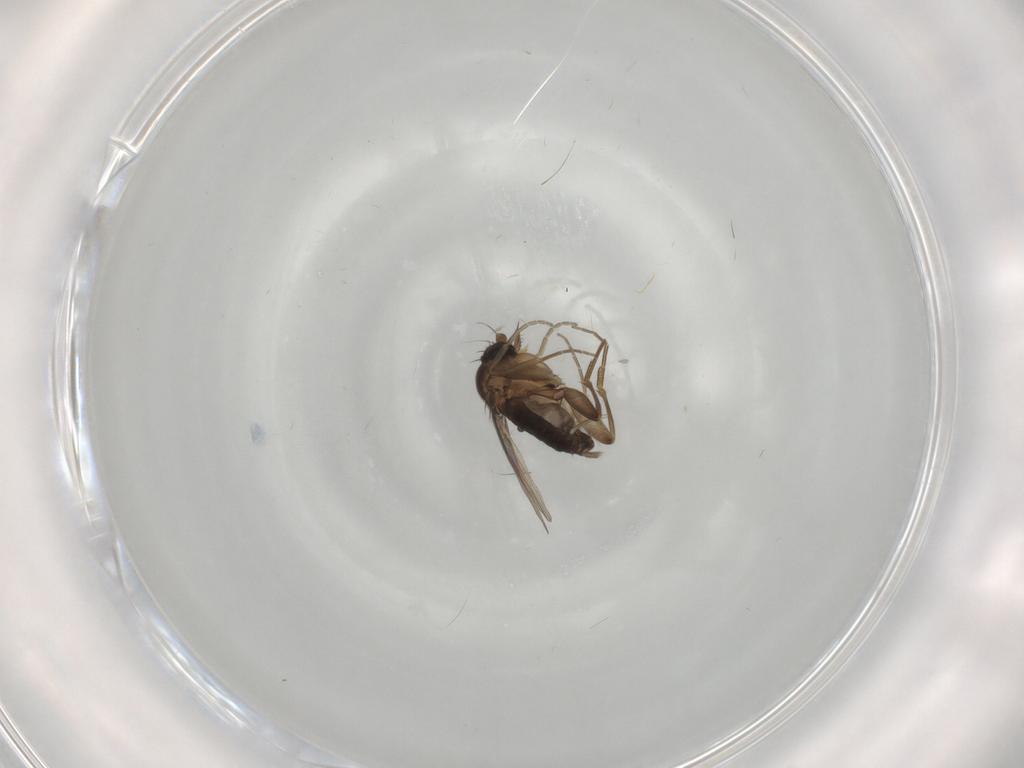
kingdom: Animalia
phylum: Arthropoda
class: Insecta
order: Diptera
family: Phoridae
